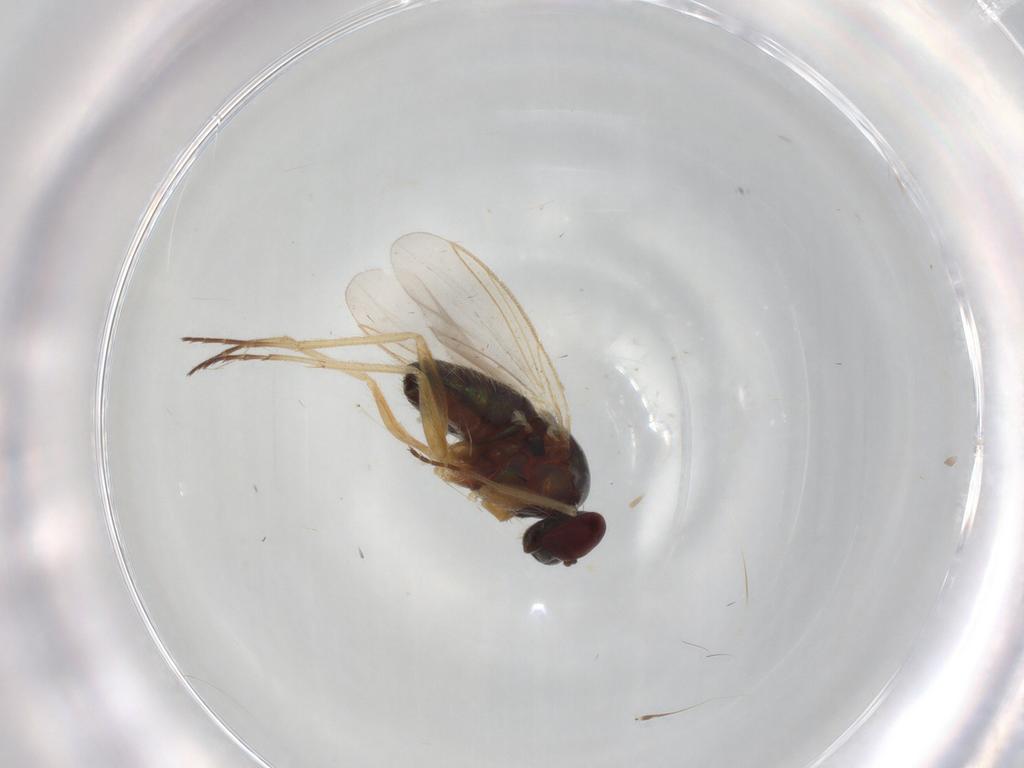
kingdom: Animalia
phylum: Arthropoda
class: Insecta
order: Diptera
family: Dolichopodidae
